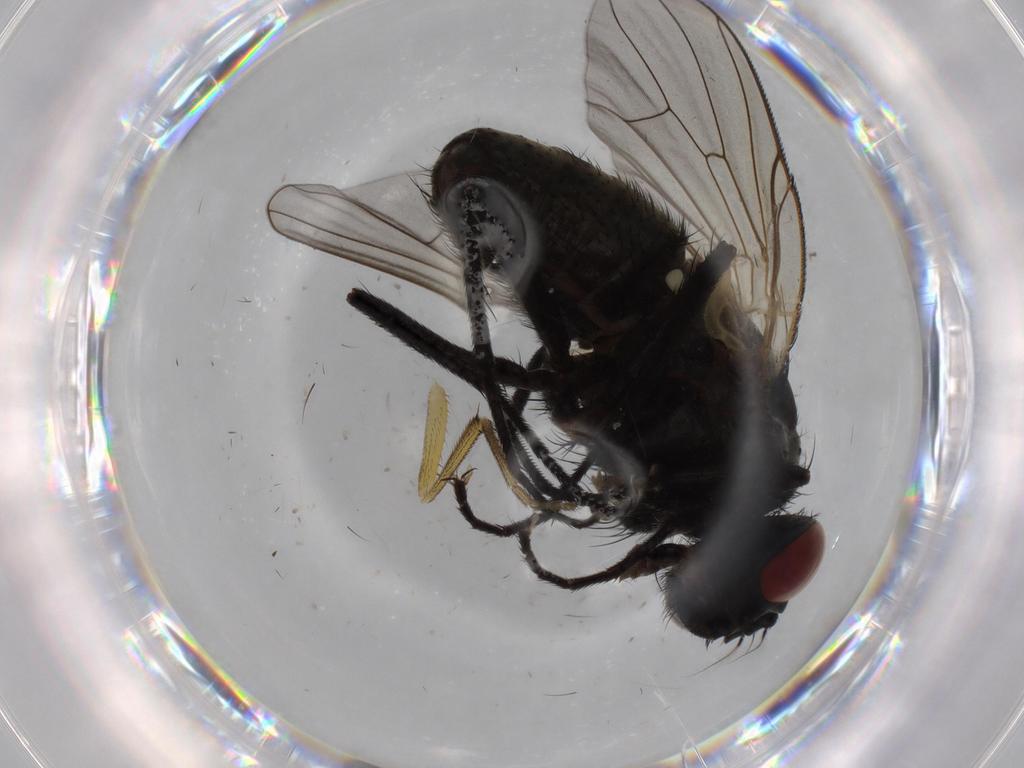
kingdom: Animalia
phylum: Arthropoda
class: Insecta
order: Diptera
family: Muscidae
